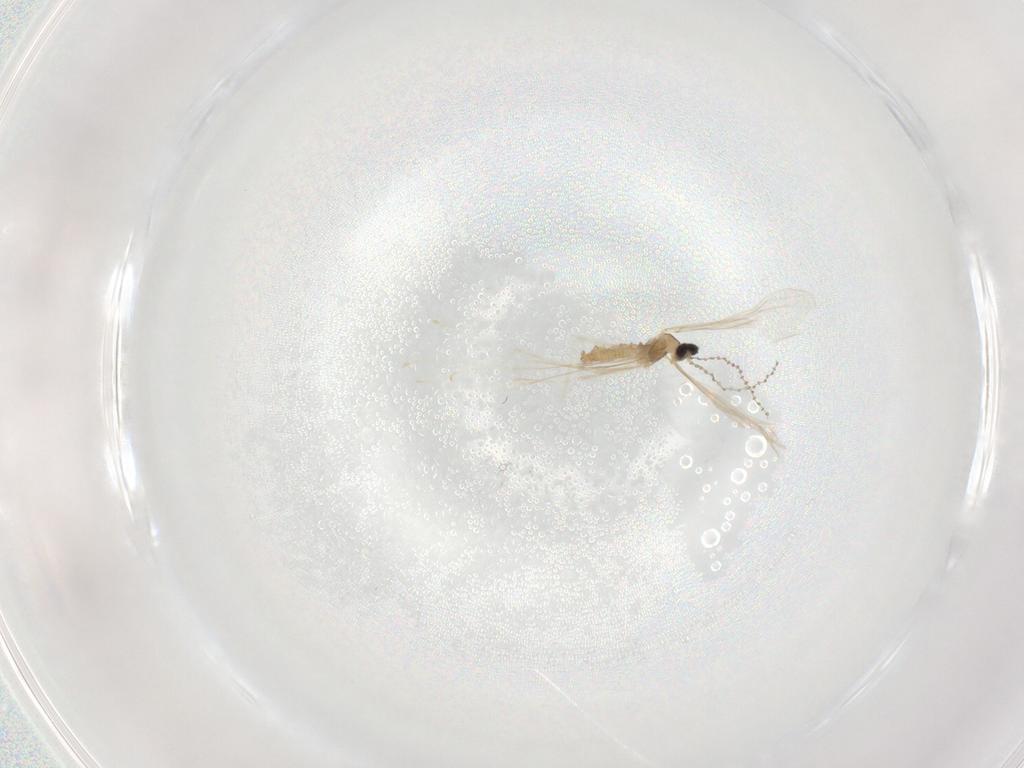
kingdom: Animalia
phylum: Arthropoda
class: Insecta
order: Diptera
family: Cecidomyiidae
